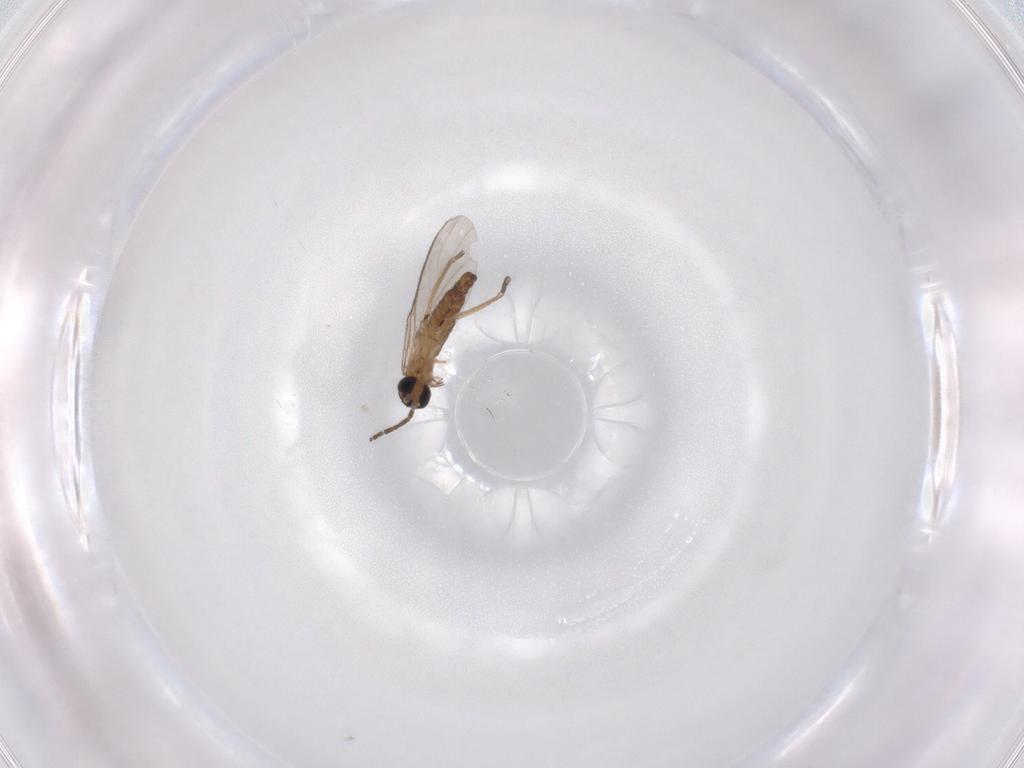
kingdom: Animalia
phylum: Arthropoda
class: Insecta
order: Diptera
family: Sciaridae
